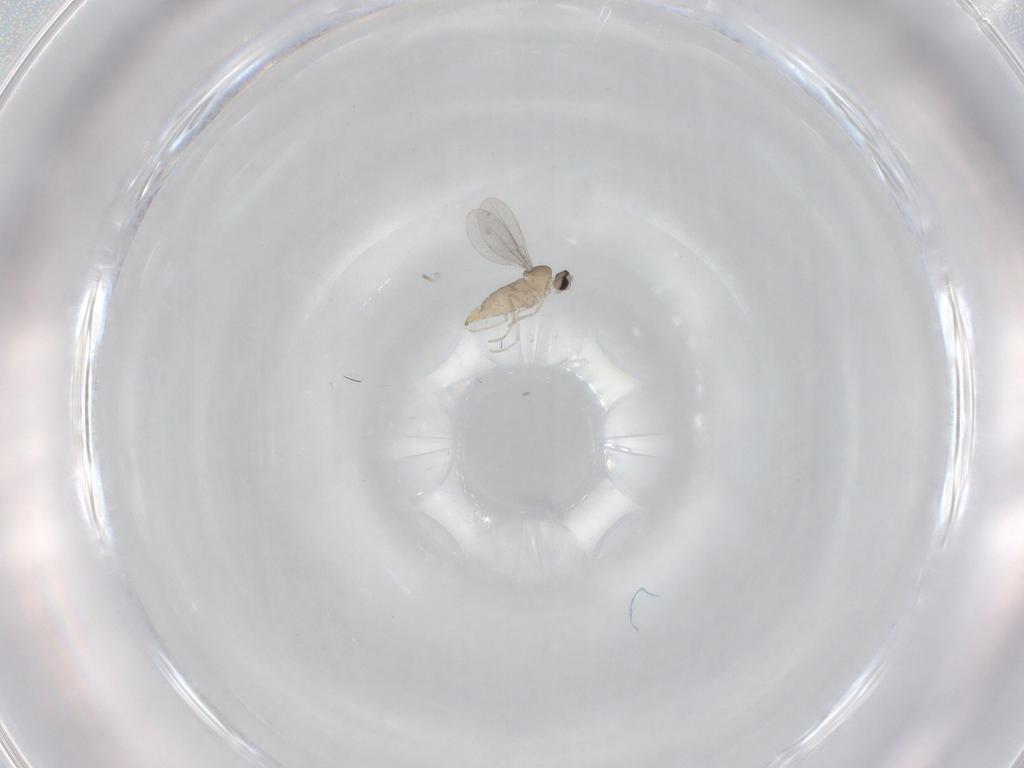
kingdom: Animalia
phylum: Arthropoda
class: Insecta
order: Diptera
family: Cecidomyiidae
